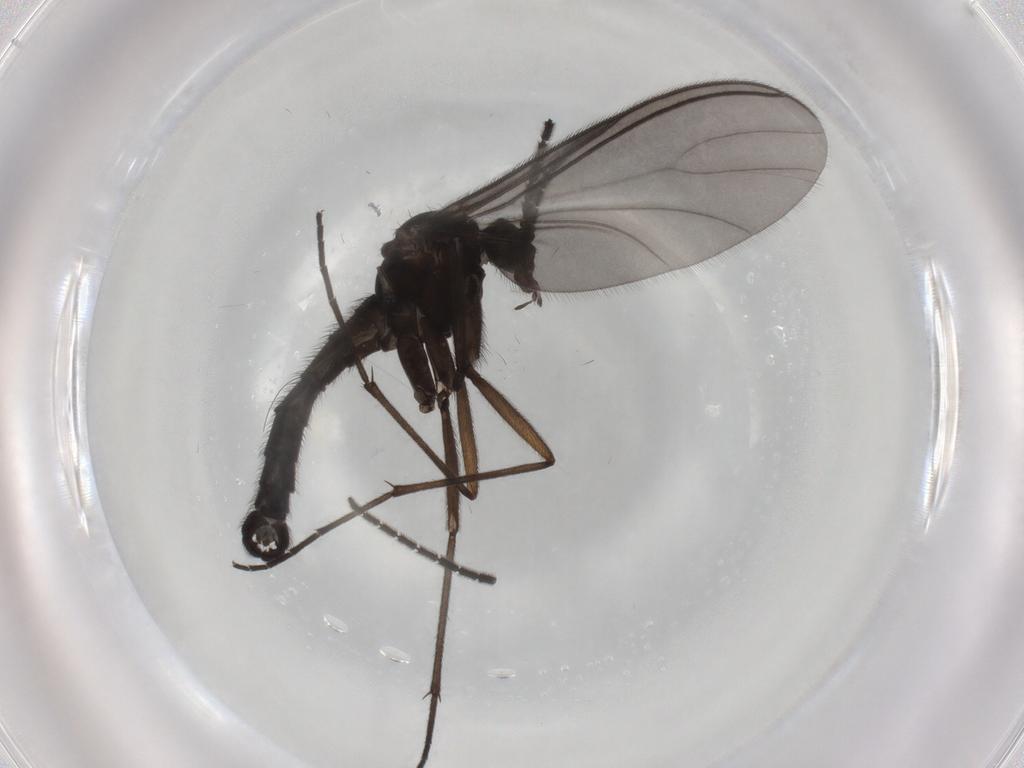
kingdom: Animalia
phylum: Arthropoda
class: Insecta
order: Diptera
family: Sciaridae
